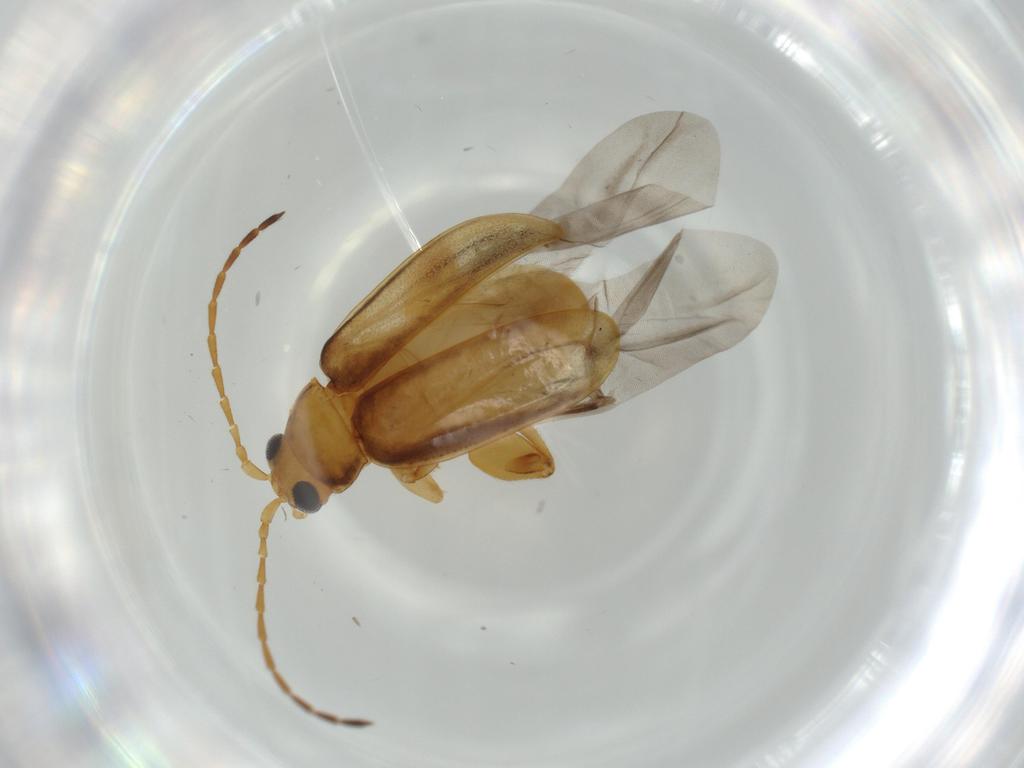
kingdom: Animalia
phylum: Arthropoda
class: Insecta
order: Coleoptera
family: Chrysomelidae
